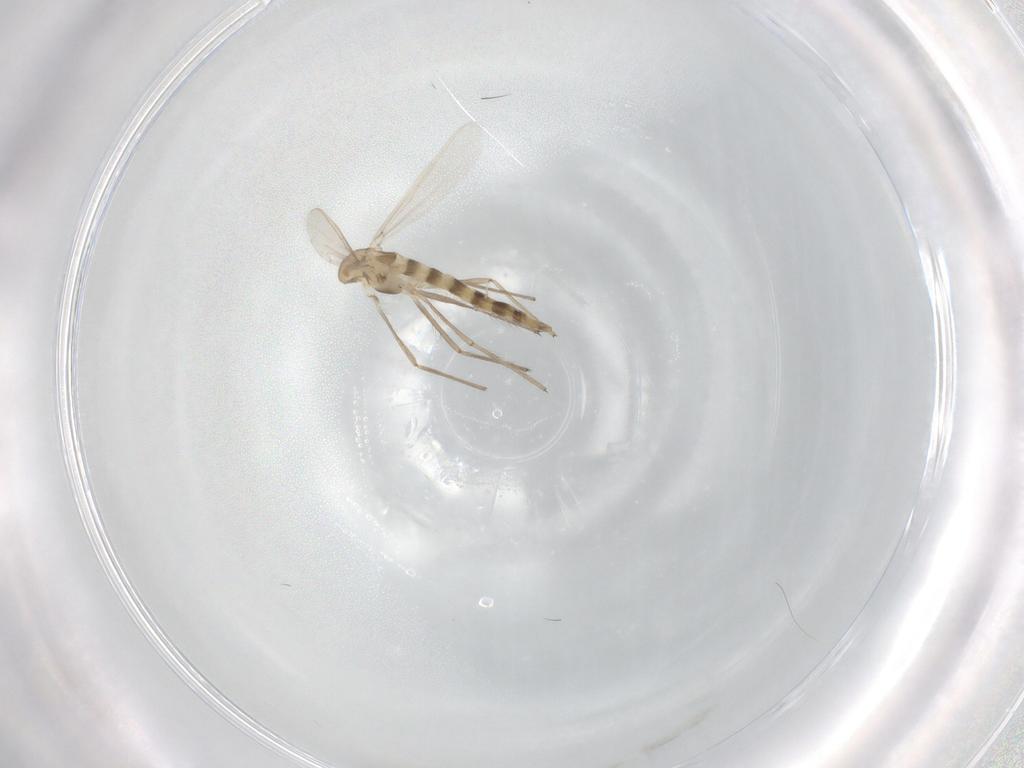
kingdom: Animalia
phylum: Arthropoda
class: Insecta
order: Diptera
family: Chironomidae
